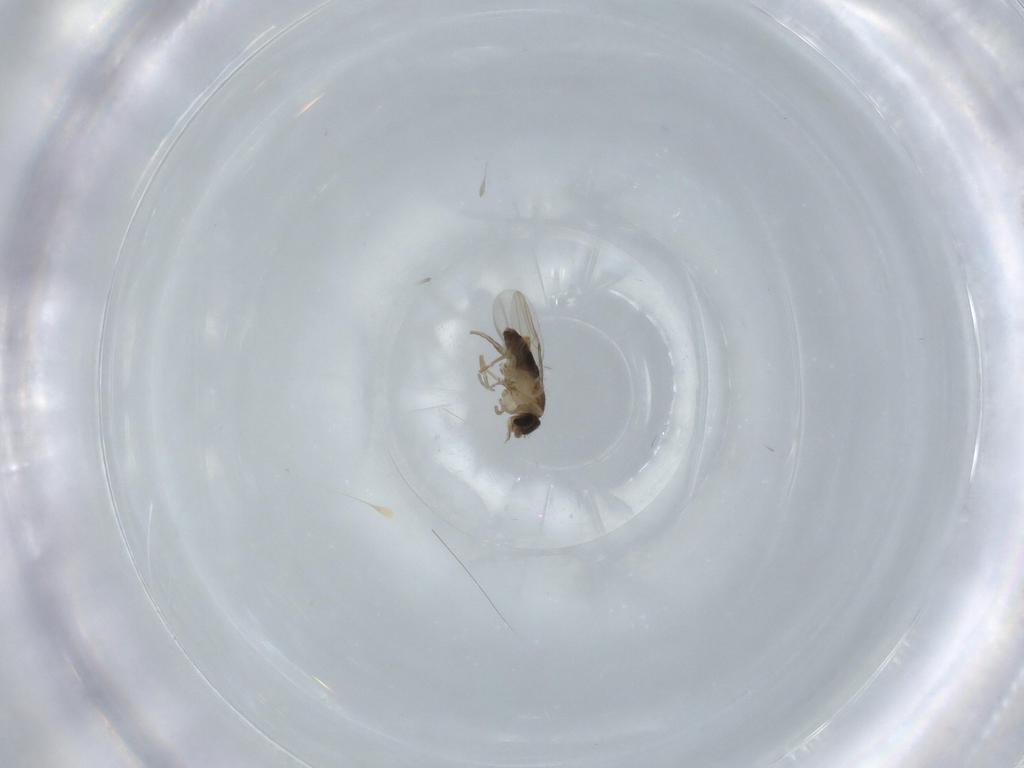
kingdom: Animalia
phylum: Arthropoda
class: Insecta
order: Diptera
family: Phoridae
